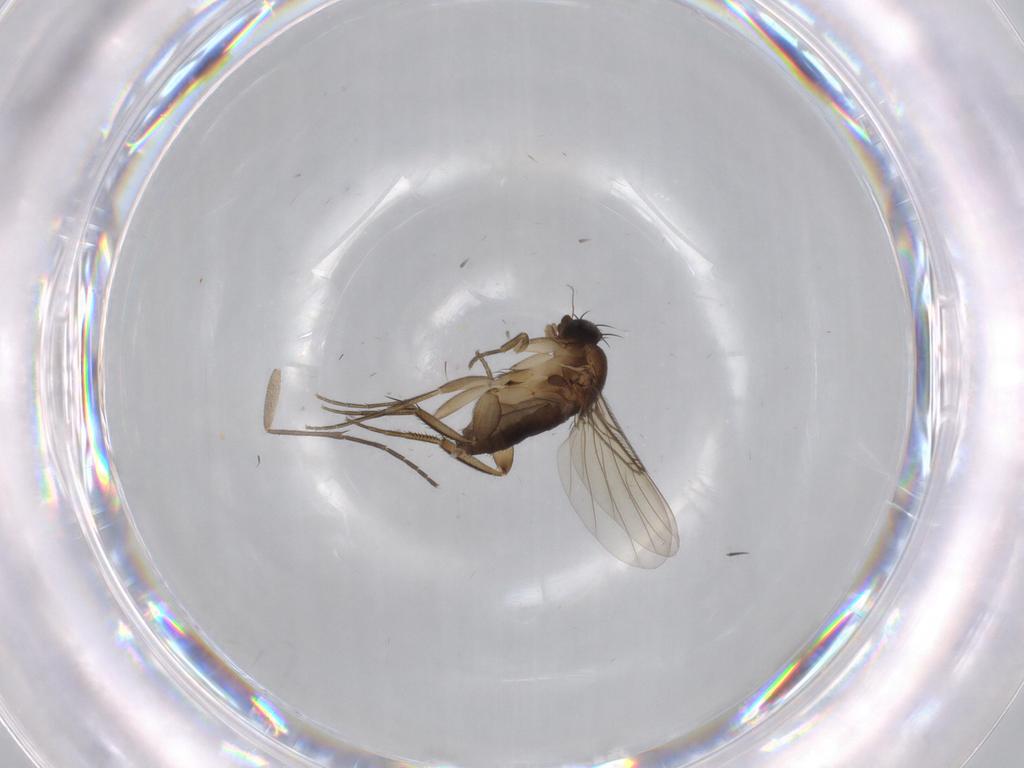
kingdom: Animalia
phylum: Arthropoda
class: Insecta
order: Diptera
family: Phoridae
